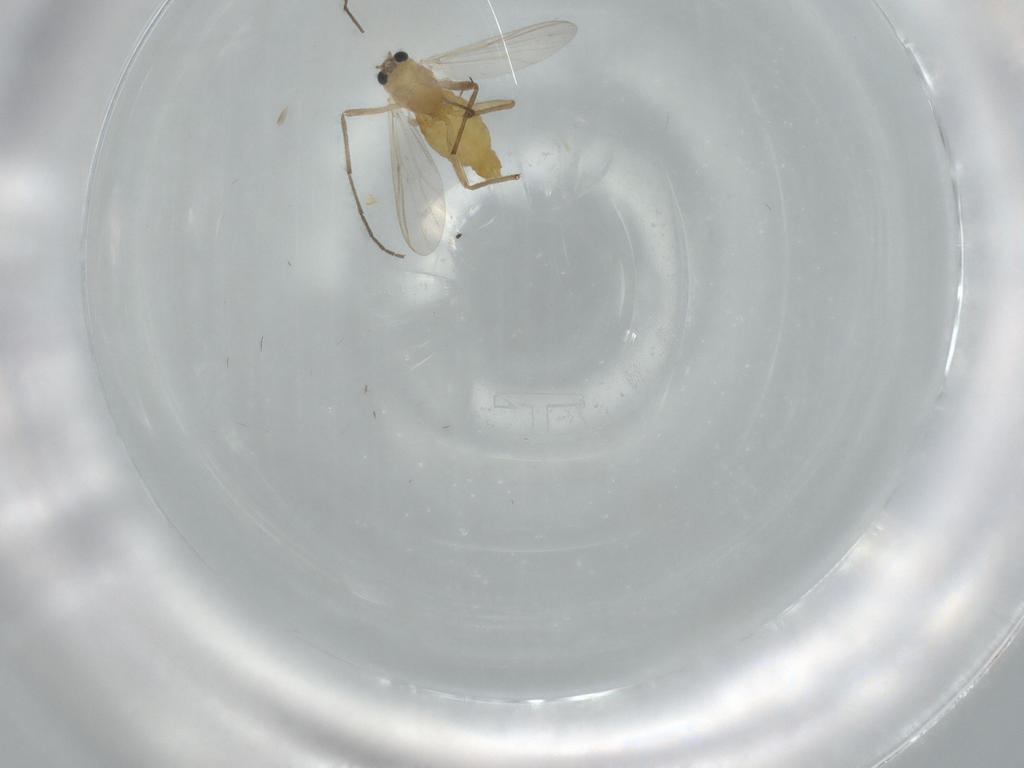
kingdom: Animalia
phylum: Arthropoda
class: Insecta
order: Diptera
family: Chironomidae
